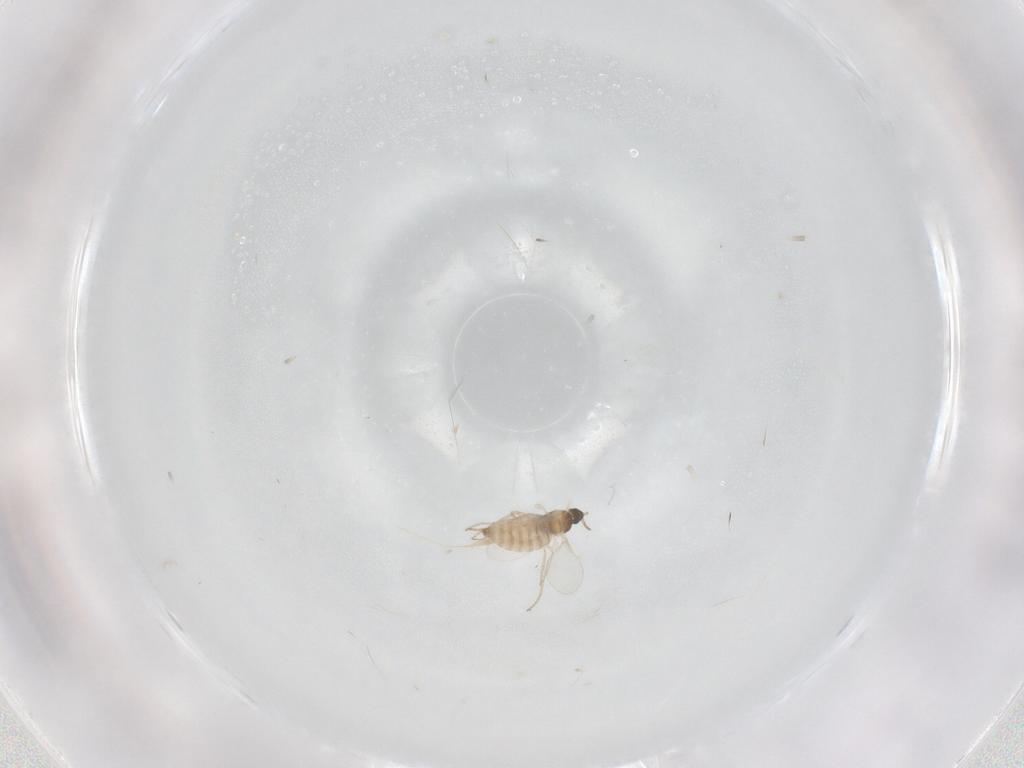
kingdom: Animalia
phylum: Arthropoda
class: Insecta
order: Diptera
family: Cecidomyiidae
